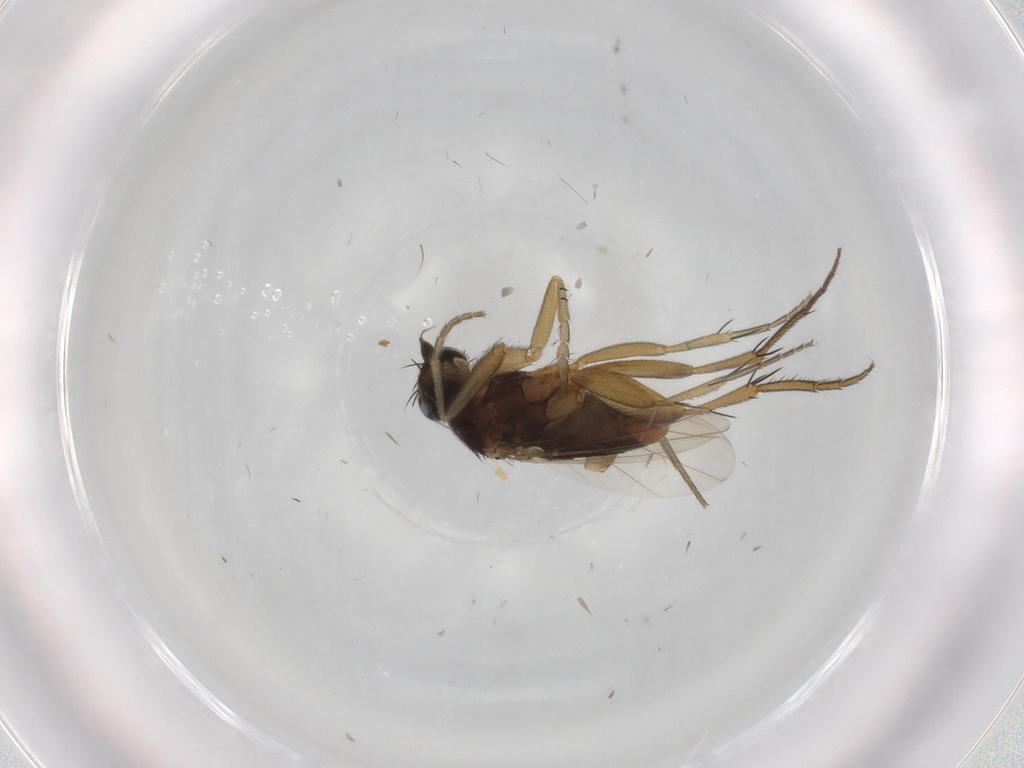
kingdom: Animalia
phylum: Arthropoda
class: Insecta
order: Diptera
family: Phoridae
